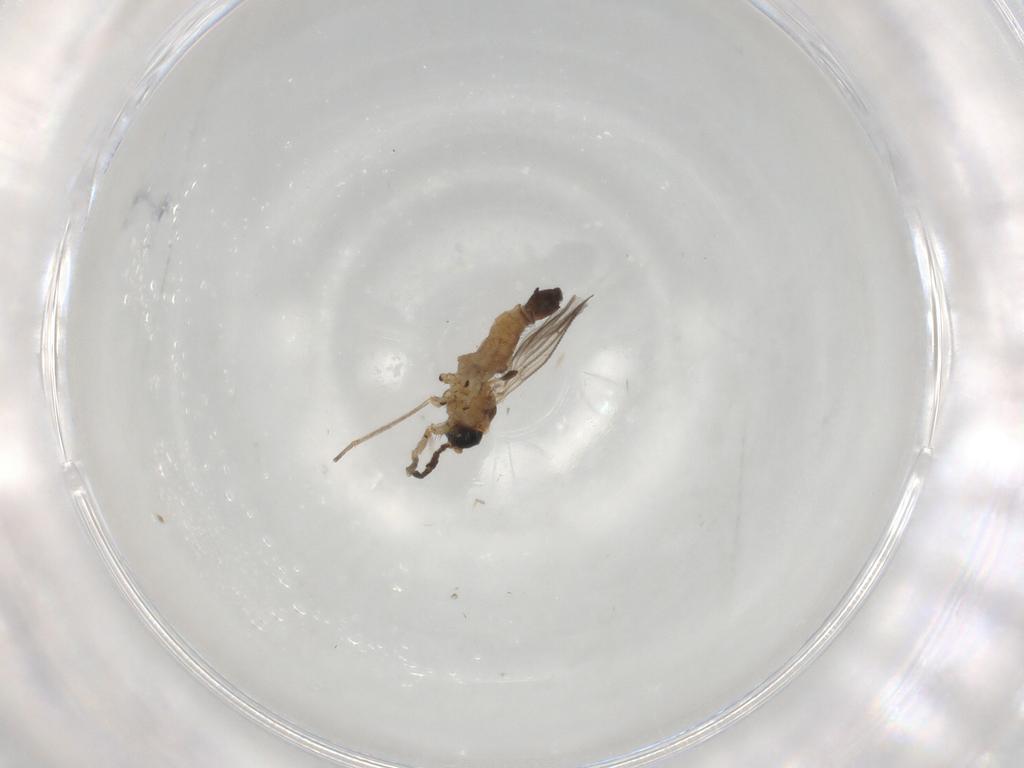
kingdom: Animalia
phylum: Arthropoda
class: Insecta
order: Diptera
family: Sciaridae
